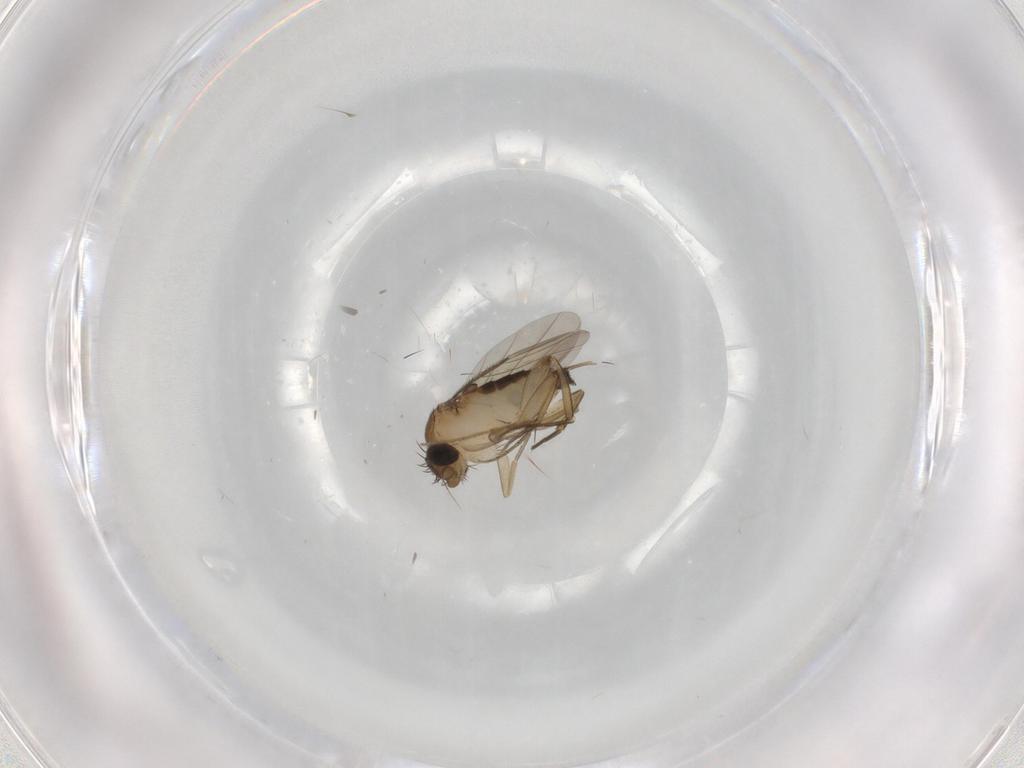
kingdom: Animalia
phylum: Arthropoda
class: Insecta
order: Diptera
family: Phoridae
